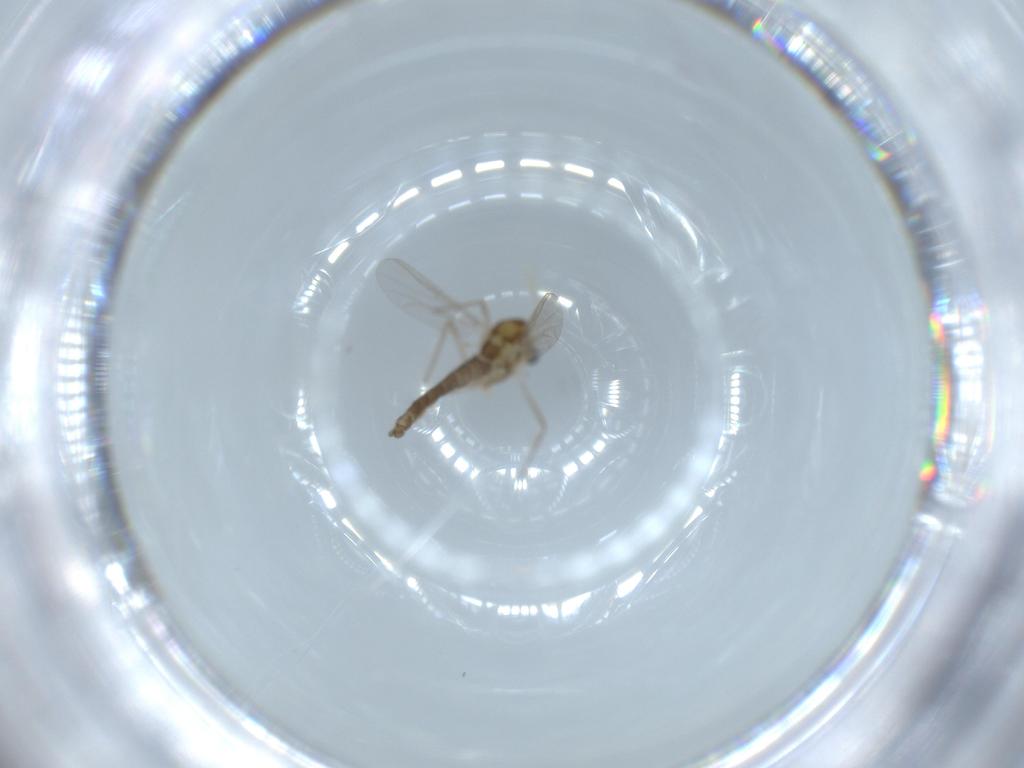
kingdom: Animalia
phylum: Arthropoda
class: Insecta
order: Diptera
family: Chironomidae
